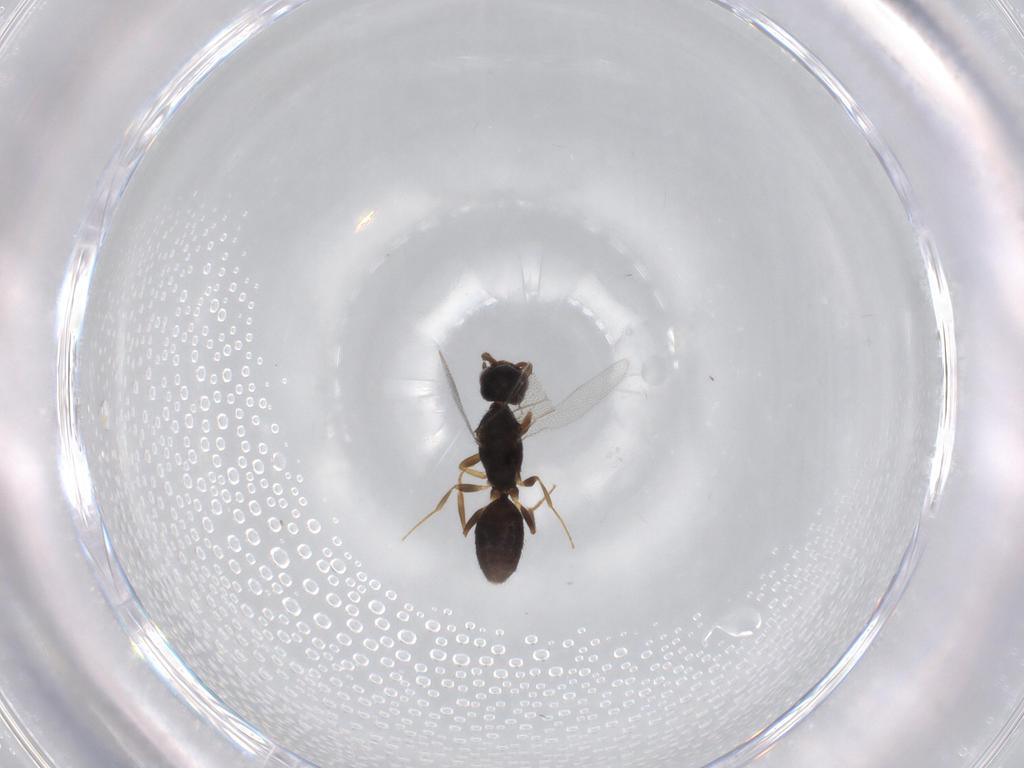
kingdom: Animalia
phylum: Arthropoda
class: Insecta
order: Hymenoptera
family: Bethylidae
